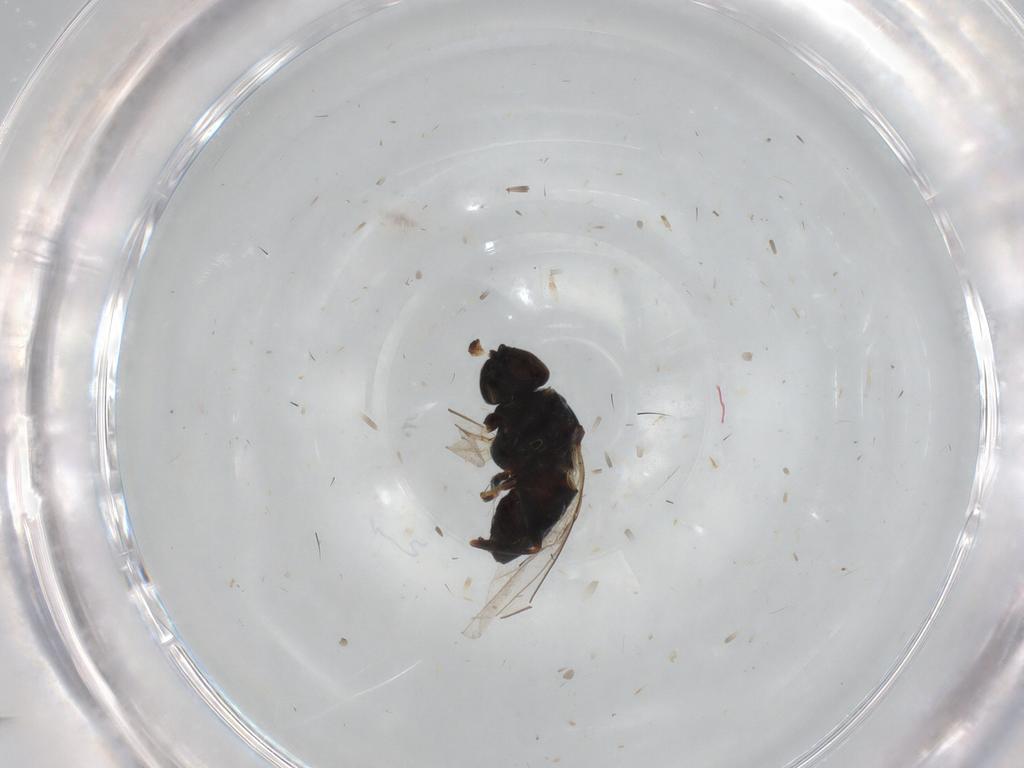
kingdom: Animalia
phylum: Arthropoda
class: Insecta
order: Diptera
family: Chloropidae
